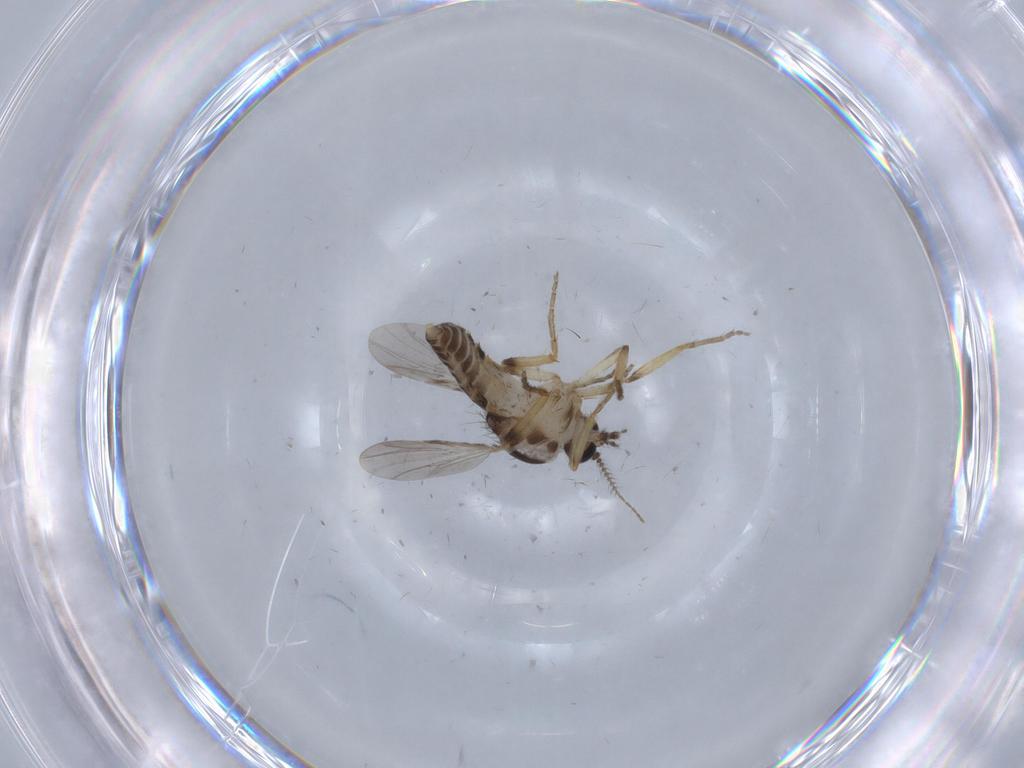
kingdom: Animalia
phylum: Arthropoda
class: Insecta
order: Diptera
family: Ceratopogonidae
